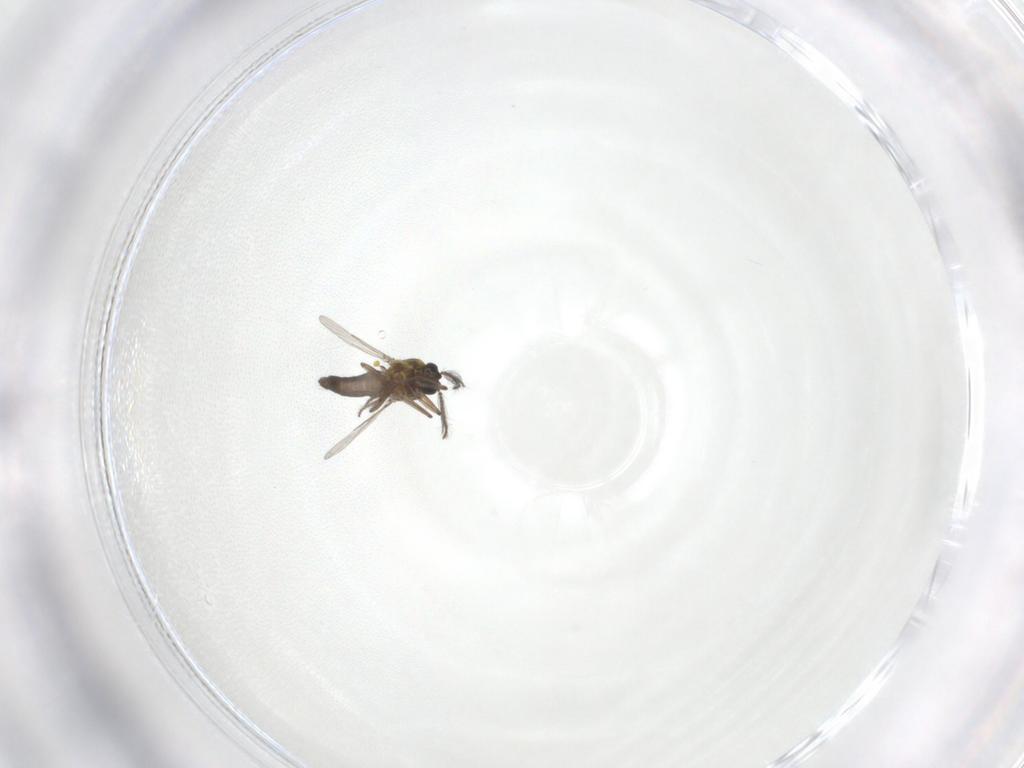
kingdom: Animalia
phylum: Arthropoda
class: Insecta
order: Diptera
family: Ceratopogonidae
